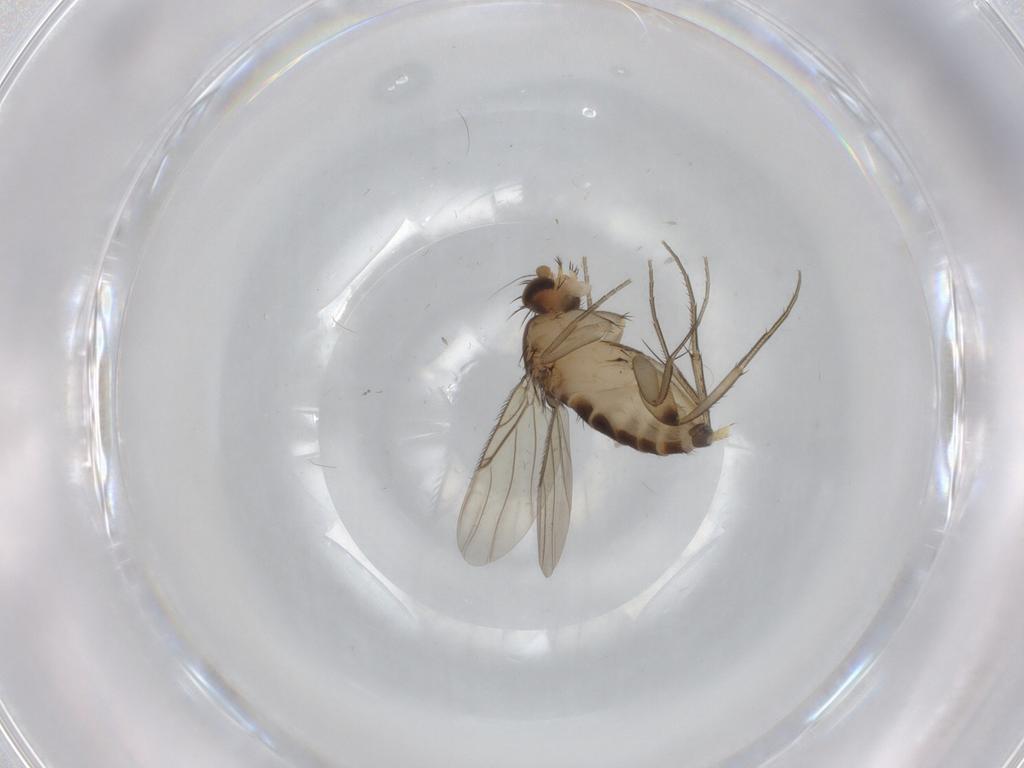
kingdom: Animalia
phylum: Arthropoda
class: Insecta
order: Diptera
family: Phoridae
